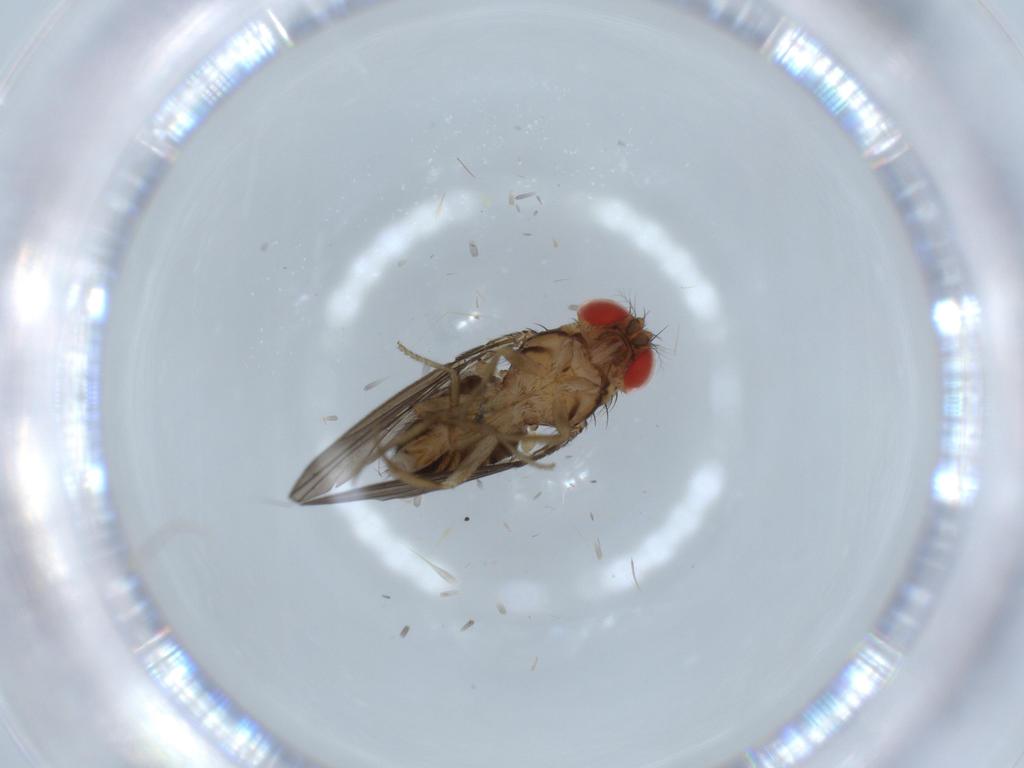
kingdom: Animalia
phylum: Arthropoda
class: Insecta
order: Diptera
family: Drosophilidae
